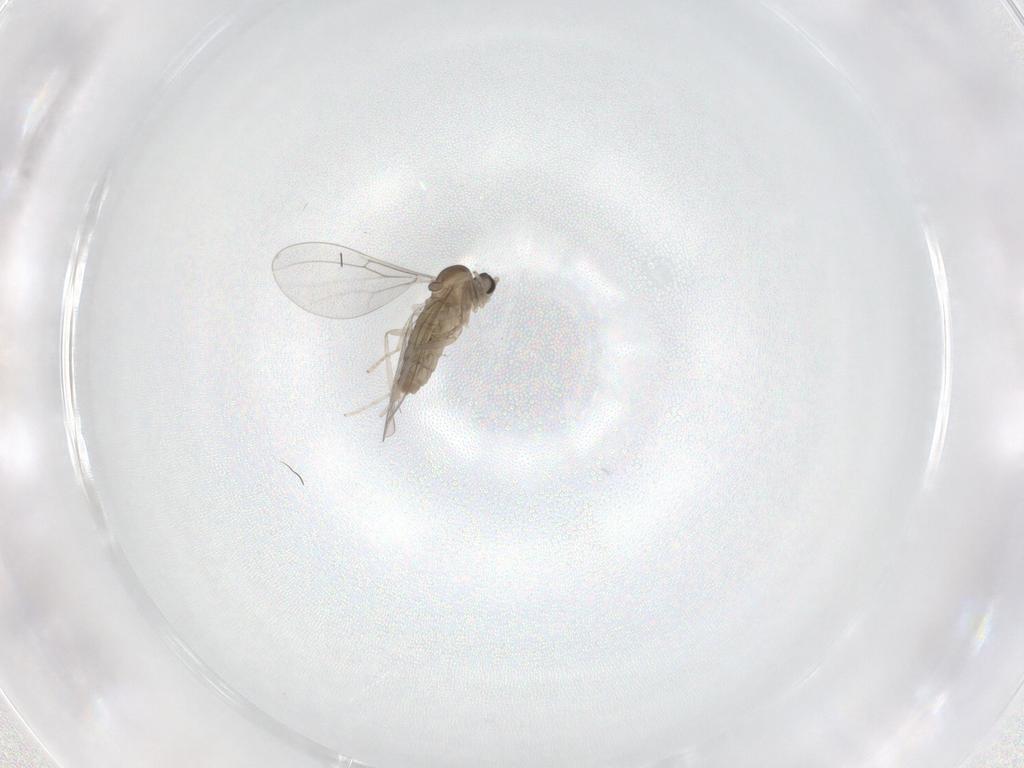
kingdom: Animalia
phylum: Arthropoda
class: Insecta
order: Diptera
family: Cecidomyiidae
